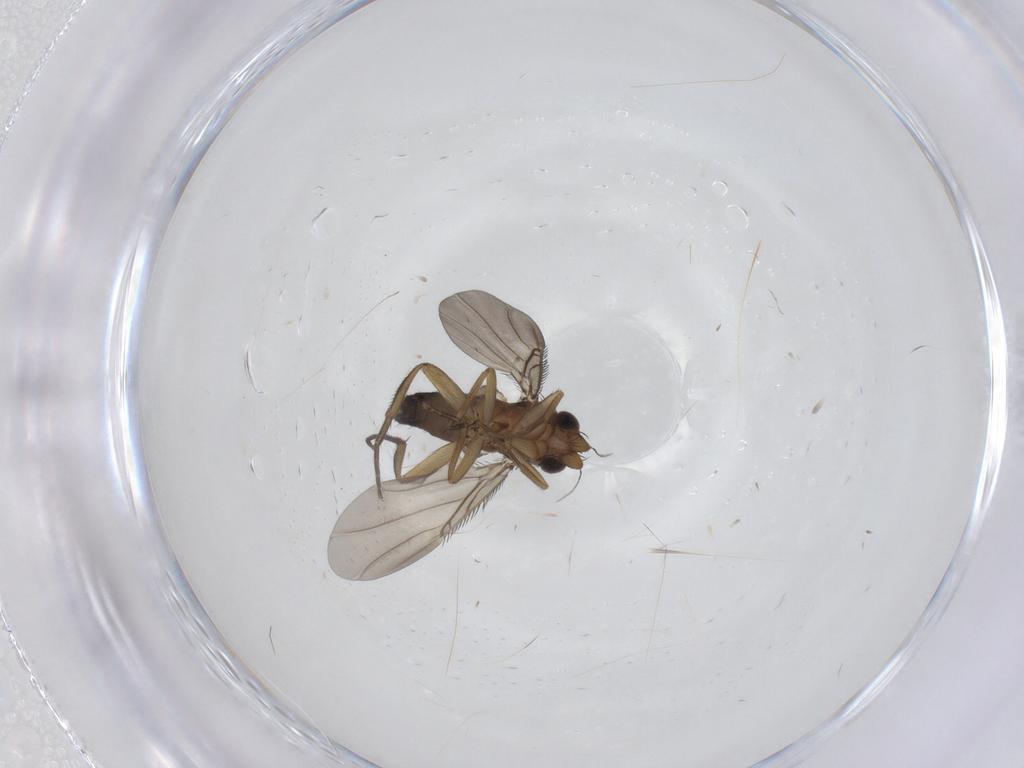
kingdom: Animalia
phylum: Arthropoda
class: Insecta
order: Diptera
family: Phoridae
